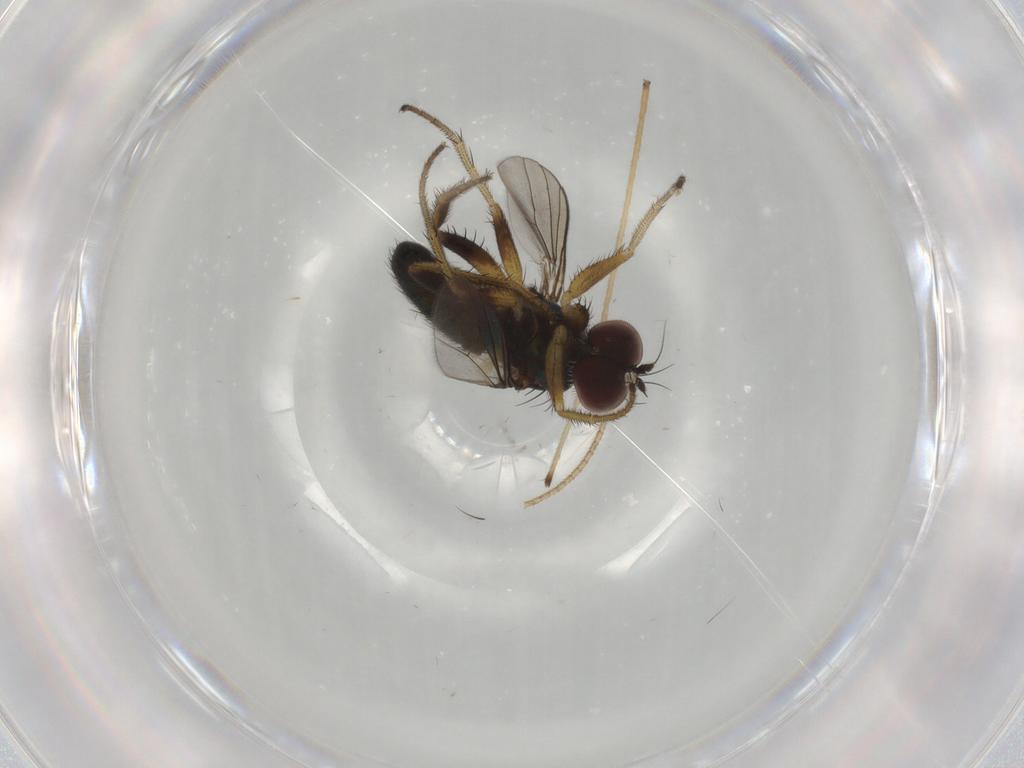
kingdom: Animalia
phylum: Arthropoda
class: Insecta
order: Diptera
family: Dolichopodidae
